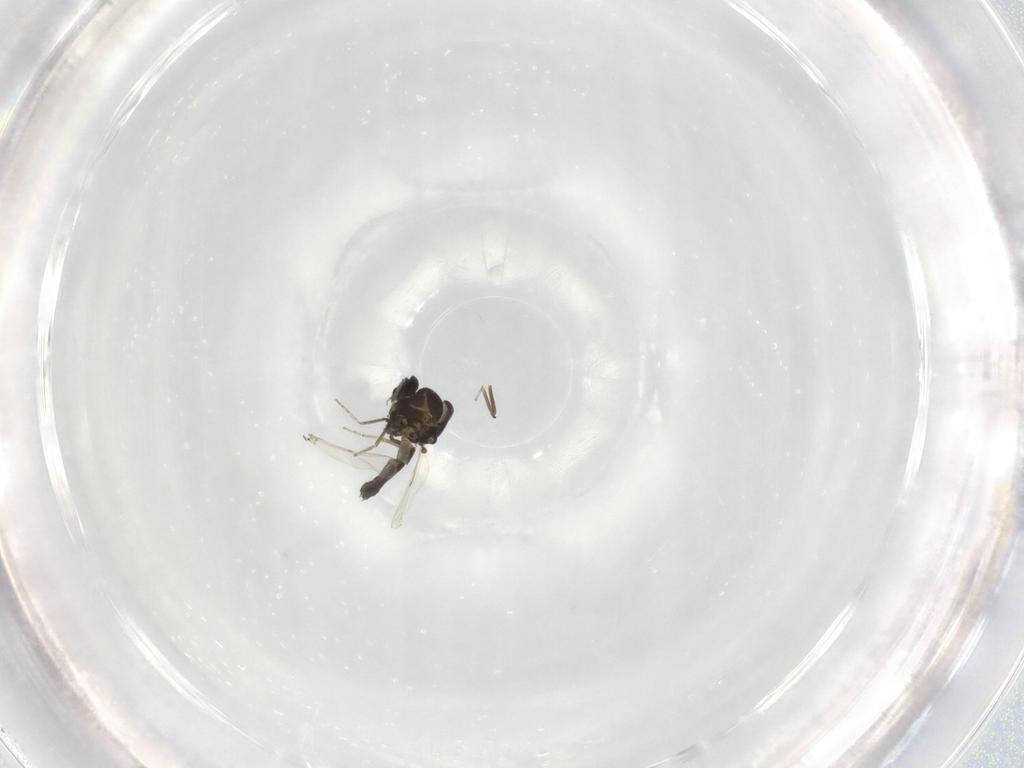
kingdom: Animalia
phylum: Arthropoda
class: Insecta
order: Diptera
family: Ceratopogonidae
